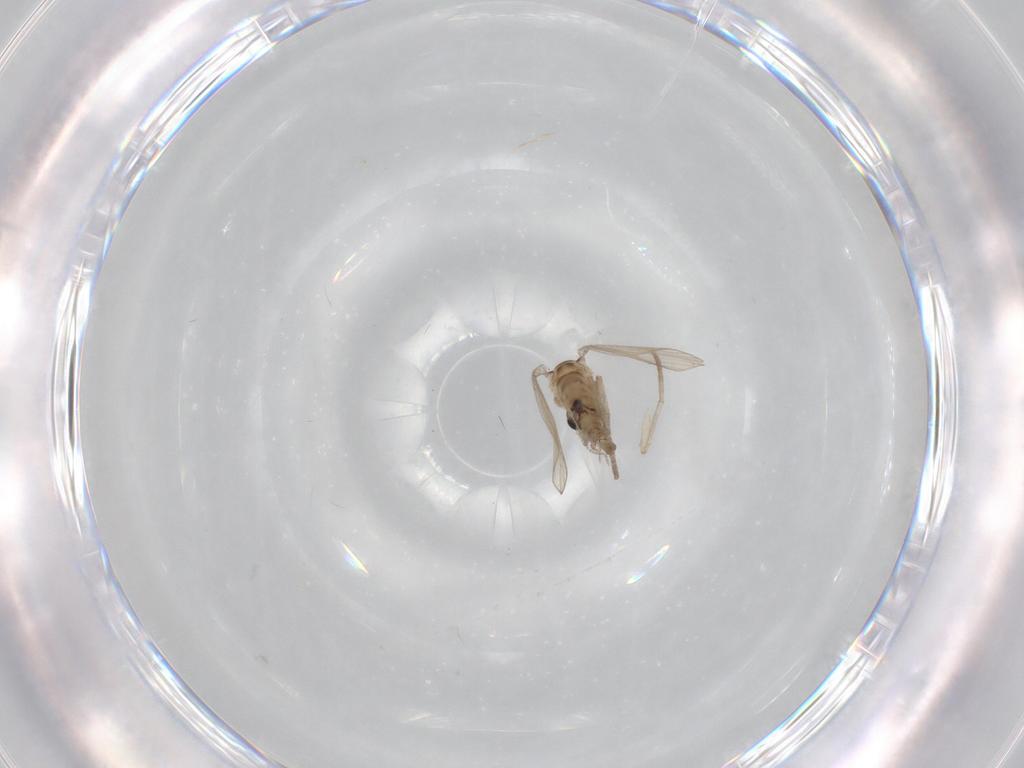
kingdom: Animalia
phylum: Arthropoda
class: Insecta
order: Diptera
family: Psychodidae
